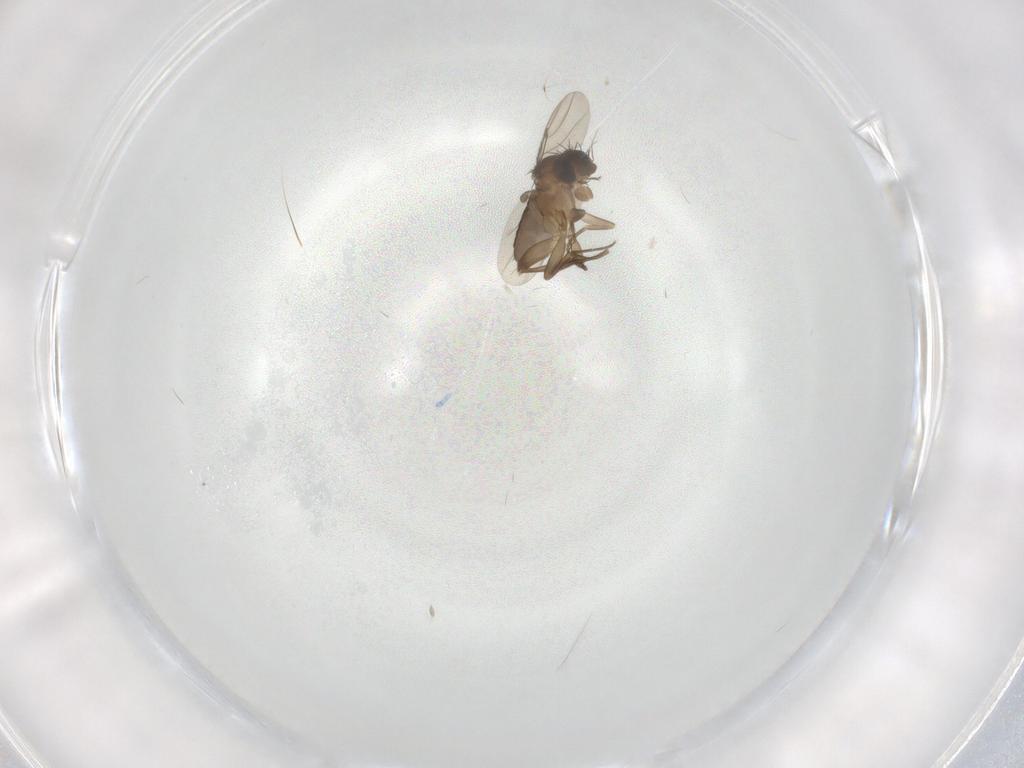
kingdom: Animalia
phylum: Arthropoda
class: Insecta
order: Diptera
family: Phoridae
